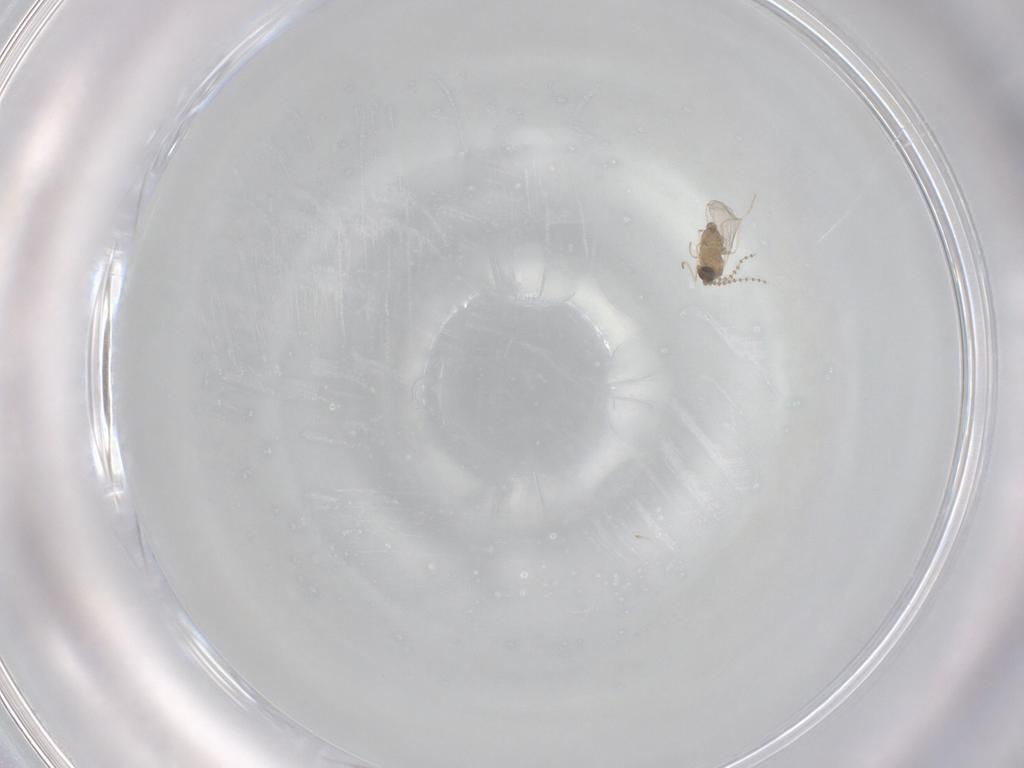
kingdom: Animalia
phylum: Arthropoda
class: Insecta
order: Diptera
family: Cecidomyiidae
